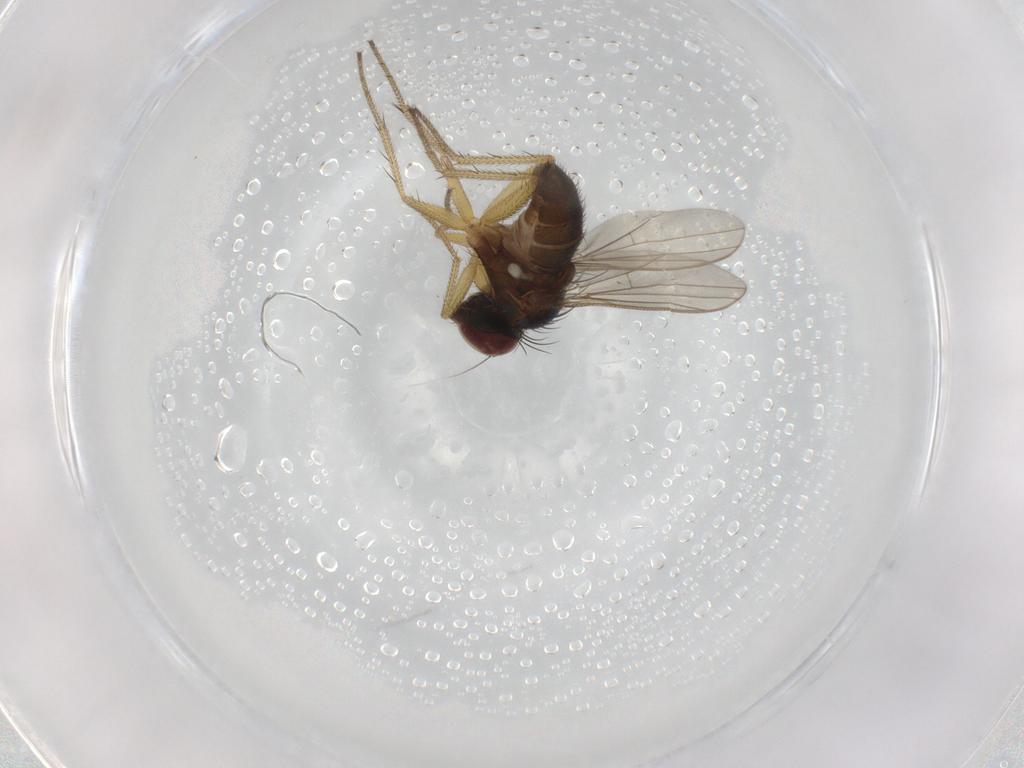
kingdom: Animalia
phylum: Arthropoda
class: Insecta
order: Diptera
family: Dolichopodidae
